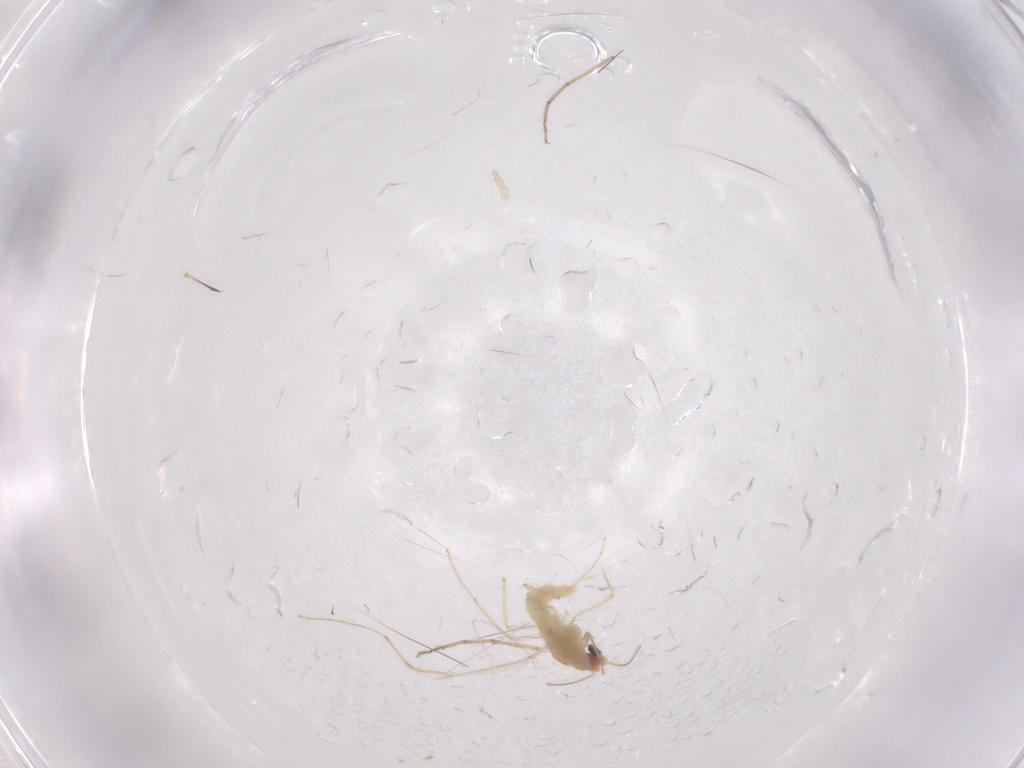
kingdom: Animalia
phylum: Arthropoda
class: Insecta
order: Diptera
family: Chironomidae
